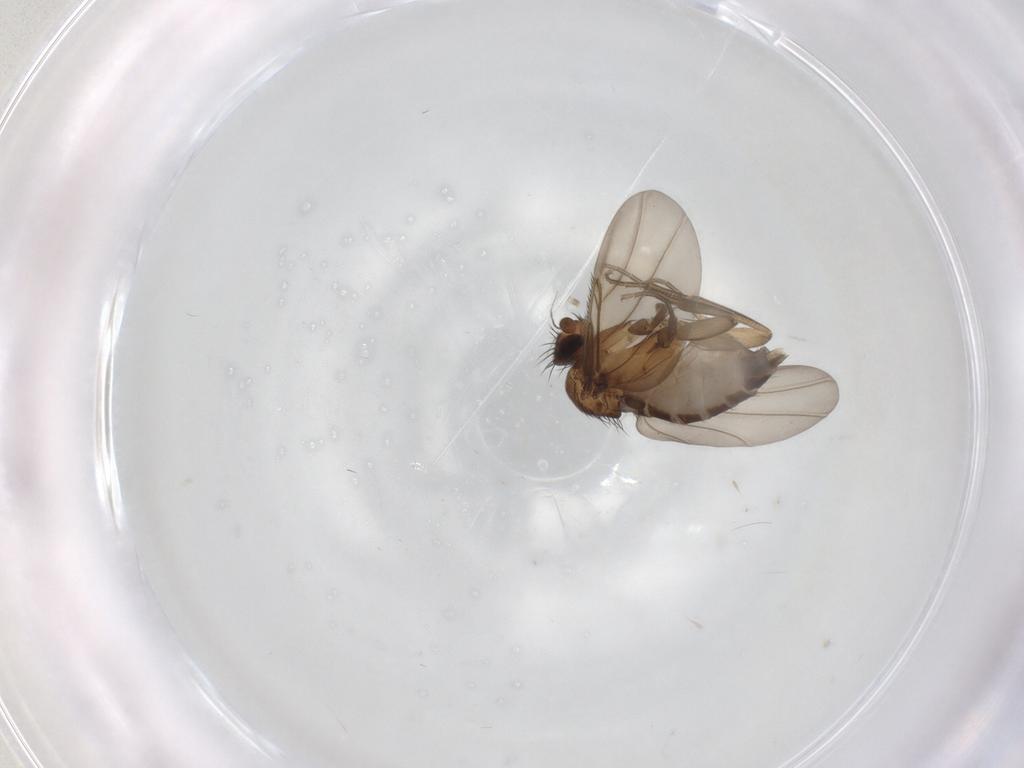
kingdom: Animalia
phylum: Arthropoda
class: Insecta
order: Diptera
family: Phoridae
